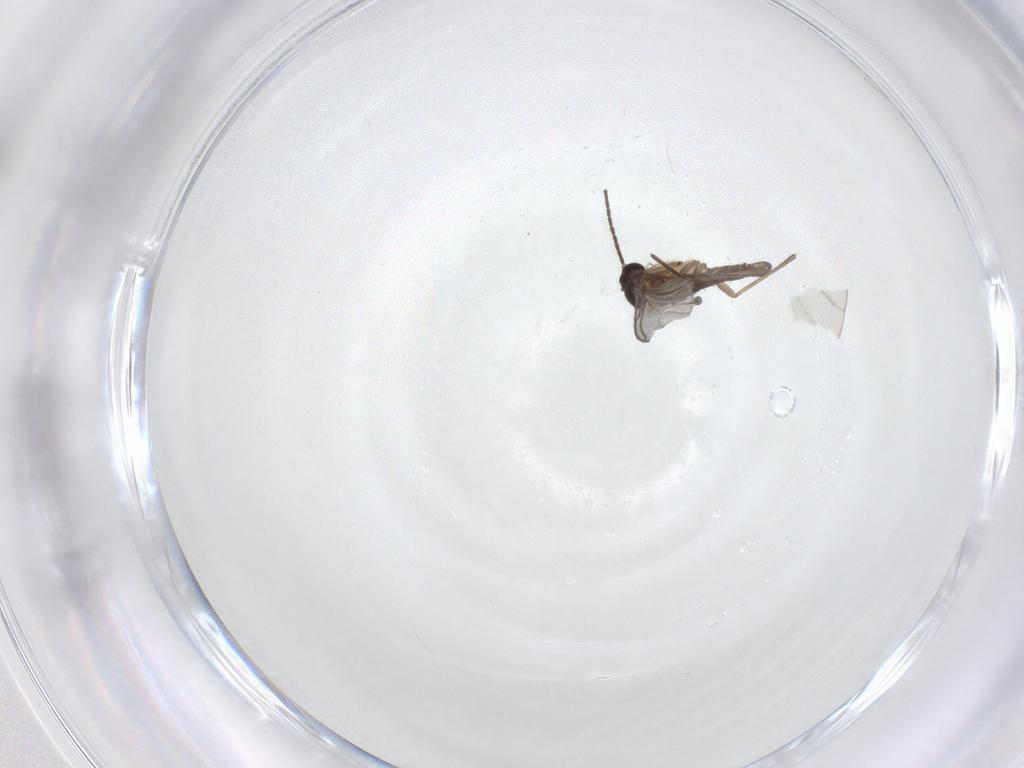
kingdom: Animalia
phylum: Arthropoda
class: Insecta
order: Diptera
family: Sciaridae
